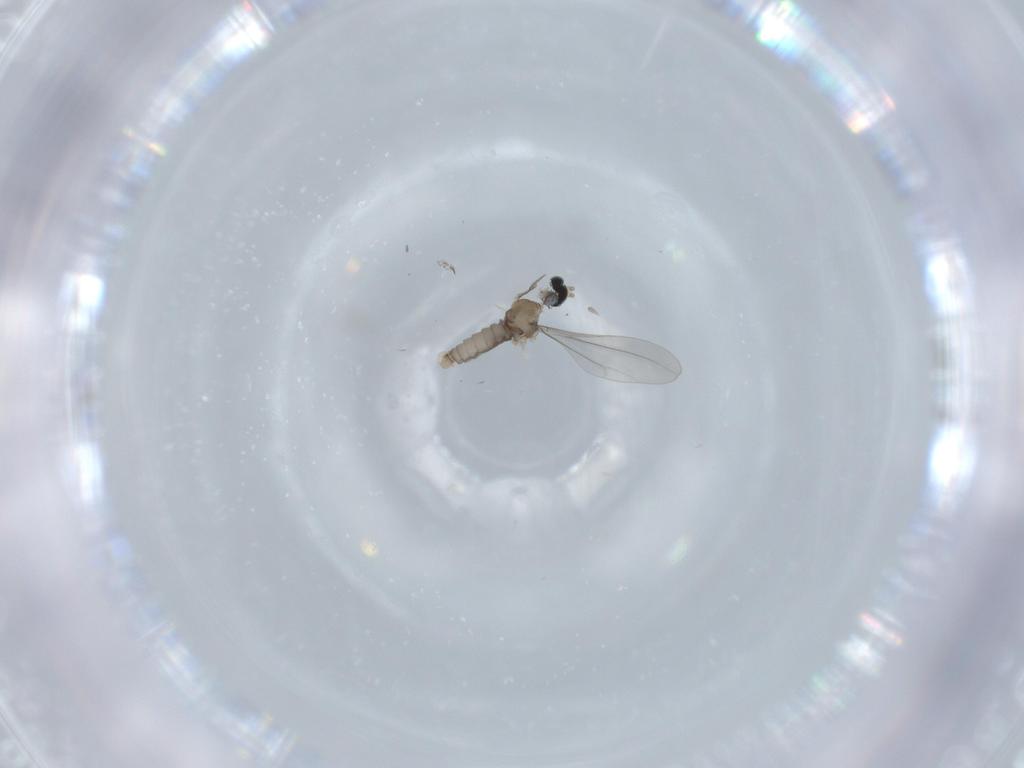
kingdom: Animalia
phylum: Arthropoda
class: Insecta
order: Diptera
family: Cecidomyiidae
